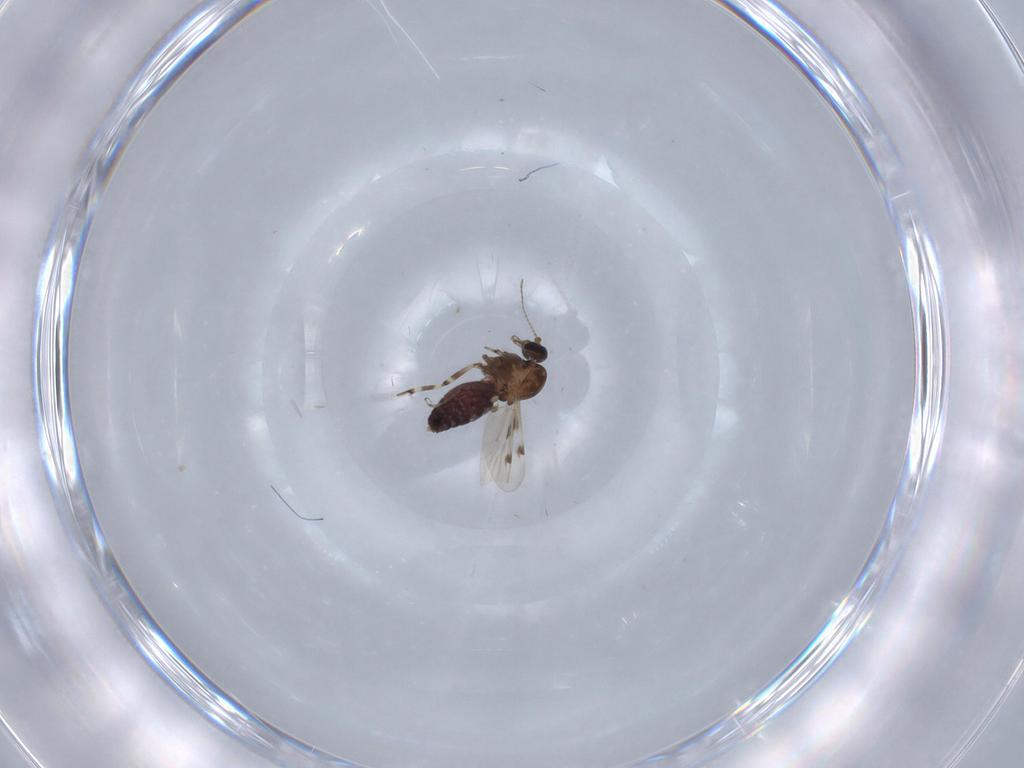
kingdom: Animalia
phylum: Arthropoda
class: Insecta
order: Diptera
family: Ceratopogonidae
